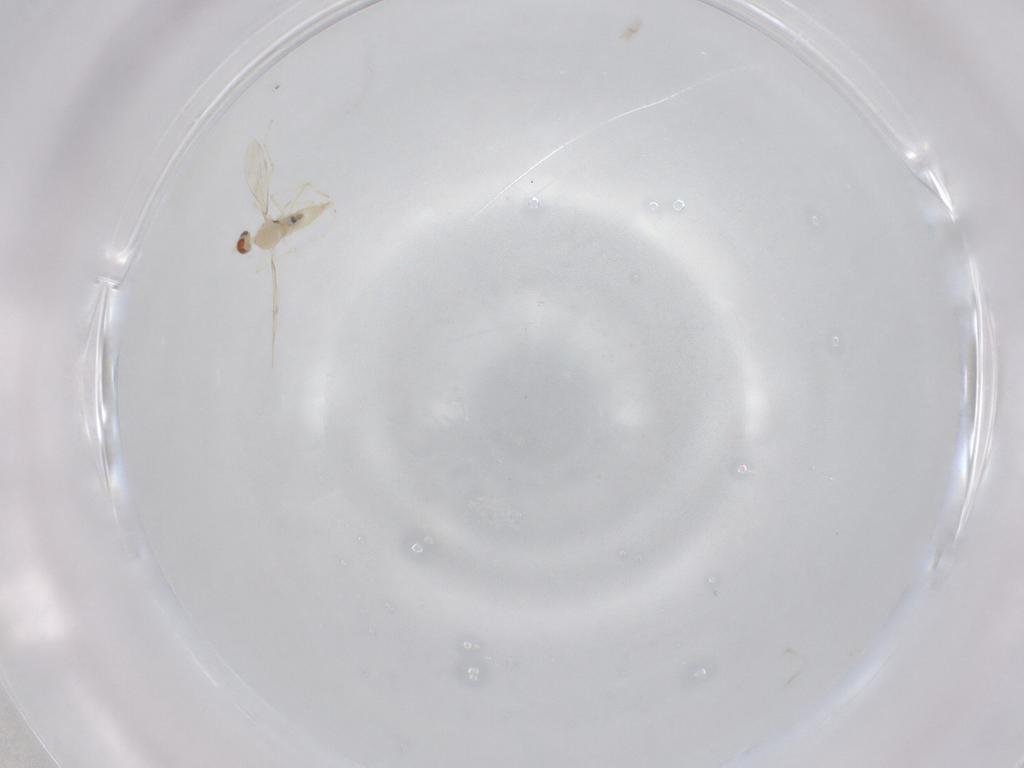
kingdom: Animalia
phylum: Arthropoda
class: Insecta
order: Diptera
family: Cecidomyiidae
